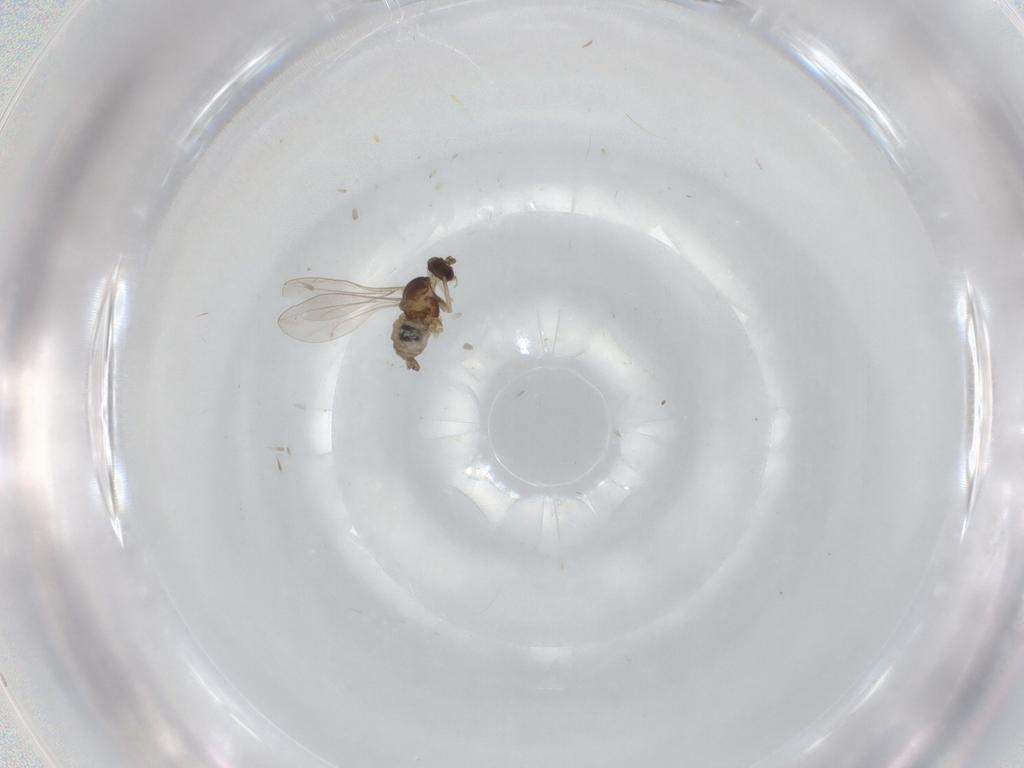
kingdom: Animalia
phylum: Arthropoda
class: Insecta
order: Diptera
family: Cecidomyiidae
